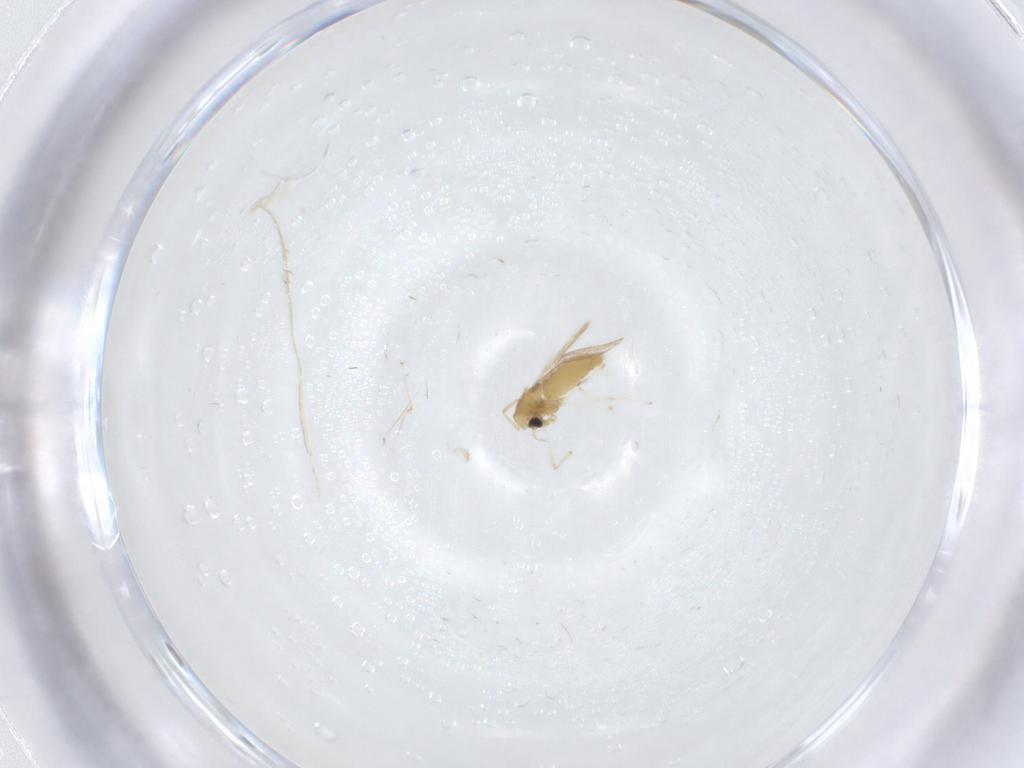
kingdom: Animalia
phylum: Arthropoda
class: Insecta
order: Diptera
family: Chironomidae
